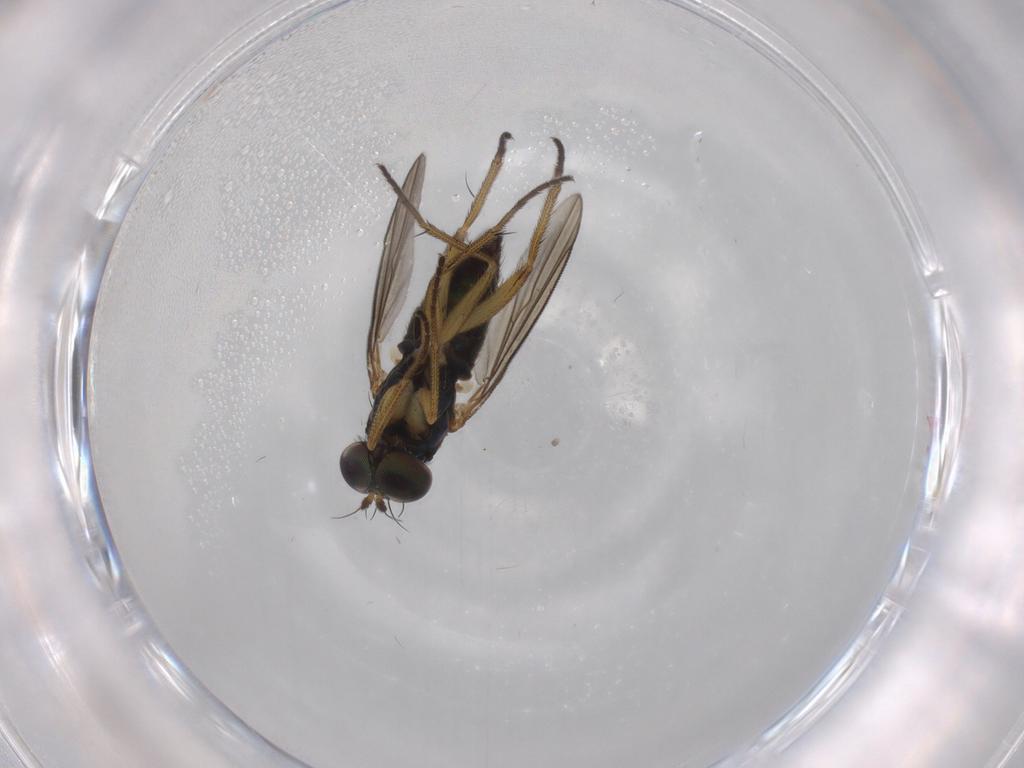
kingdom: Animalia
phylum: Arthropoda
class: Insecta
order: Diptera
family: Dolichopodidae
